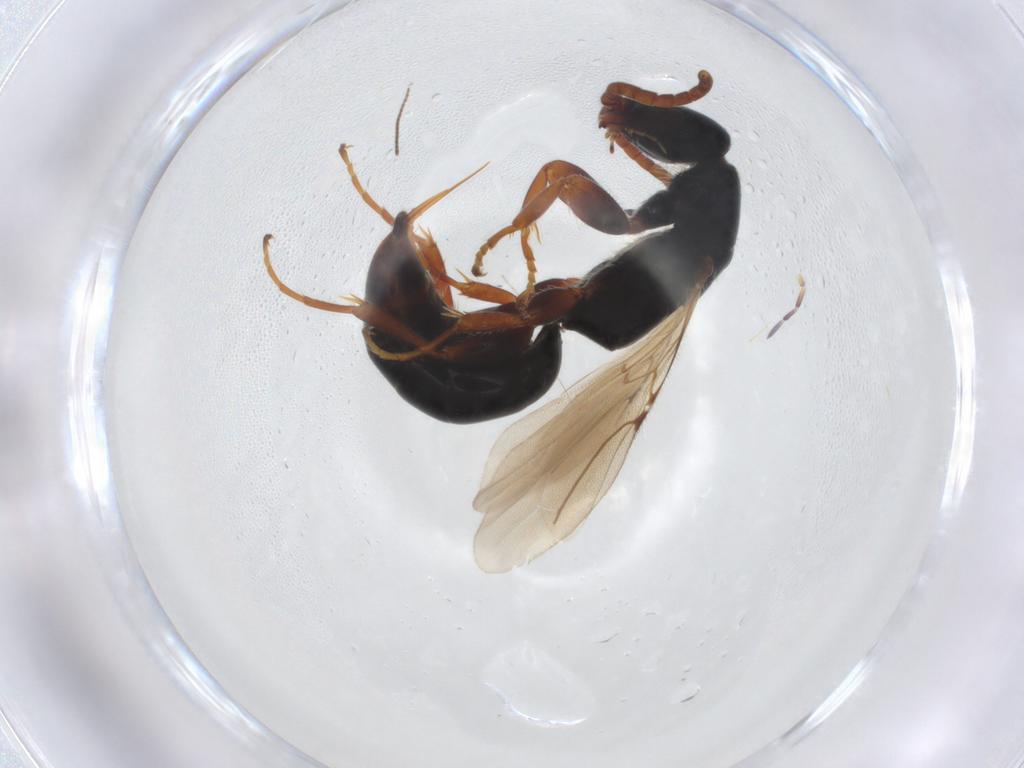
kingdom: Animalia
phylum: Arthropoda
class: Insecta
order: Hymenoptera
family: Bethylidae
